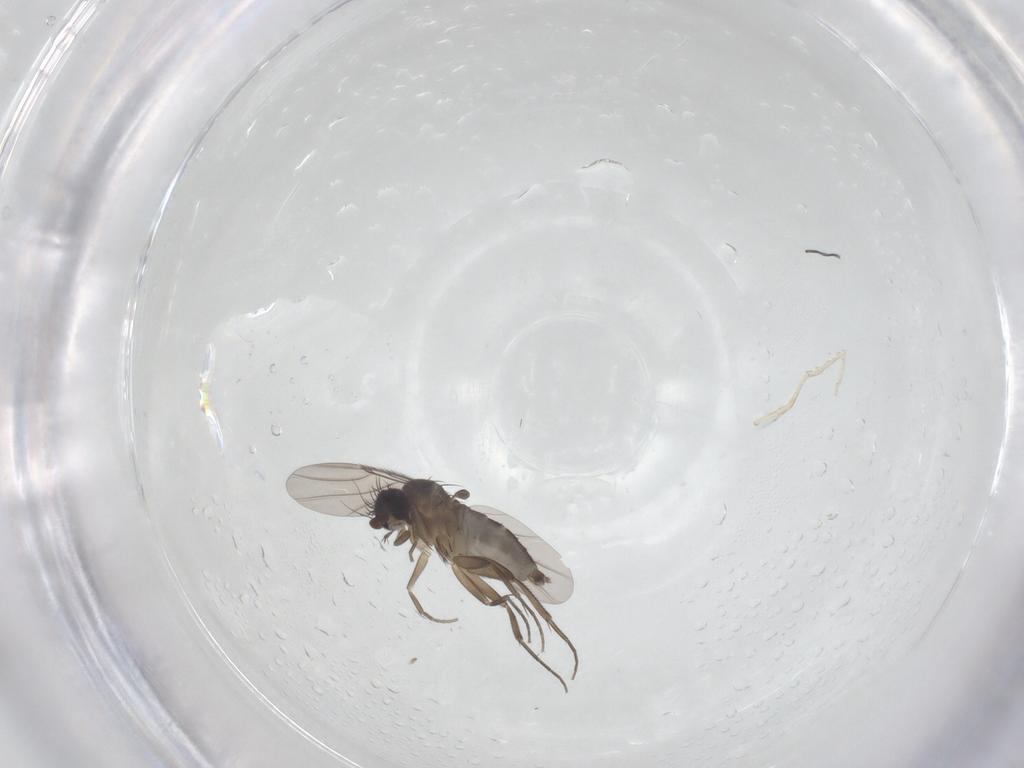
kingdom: Animalia
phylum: Arthropoda
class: Insecta
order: Diptera
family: Phoridae
